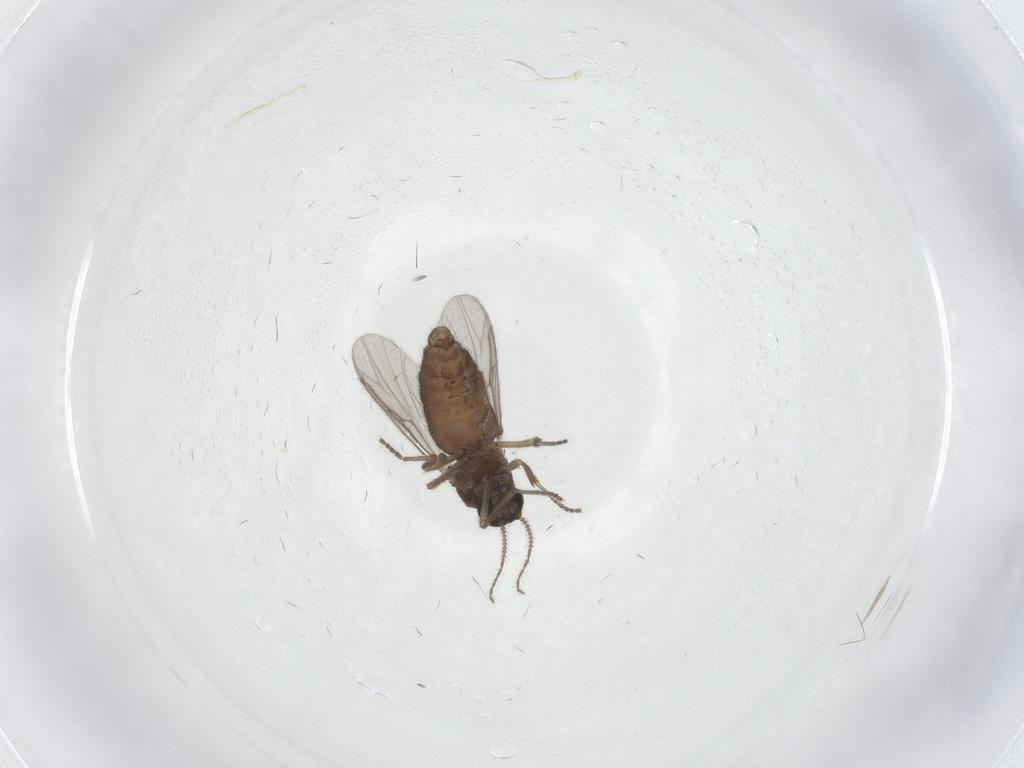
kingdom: Animalia
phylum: Arthropoda
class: Insecta
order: Diptera
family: Ceratopogonidae
